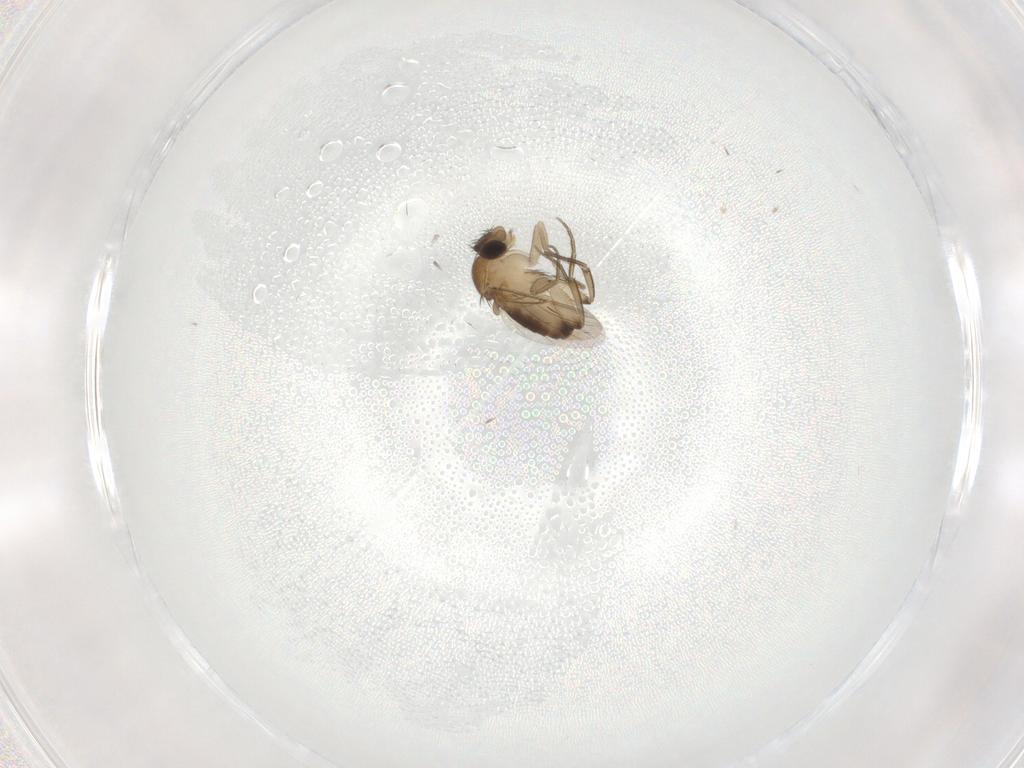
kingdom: Animalia
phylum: Arthropoda
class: Insecta
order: Diptera
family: Phoridae
